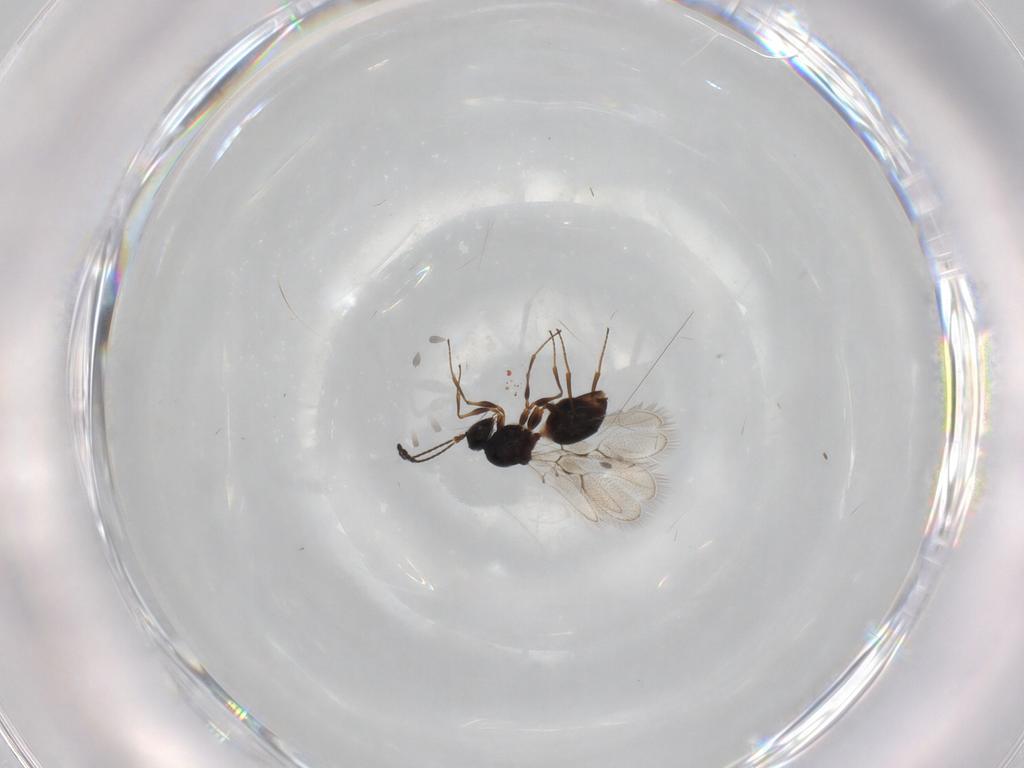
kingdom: Animalia
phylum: Arthropoda
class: Insecta
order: Hymenoptera
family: Figitidae
